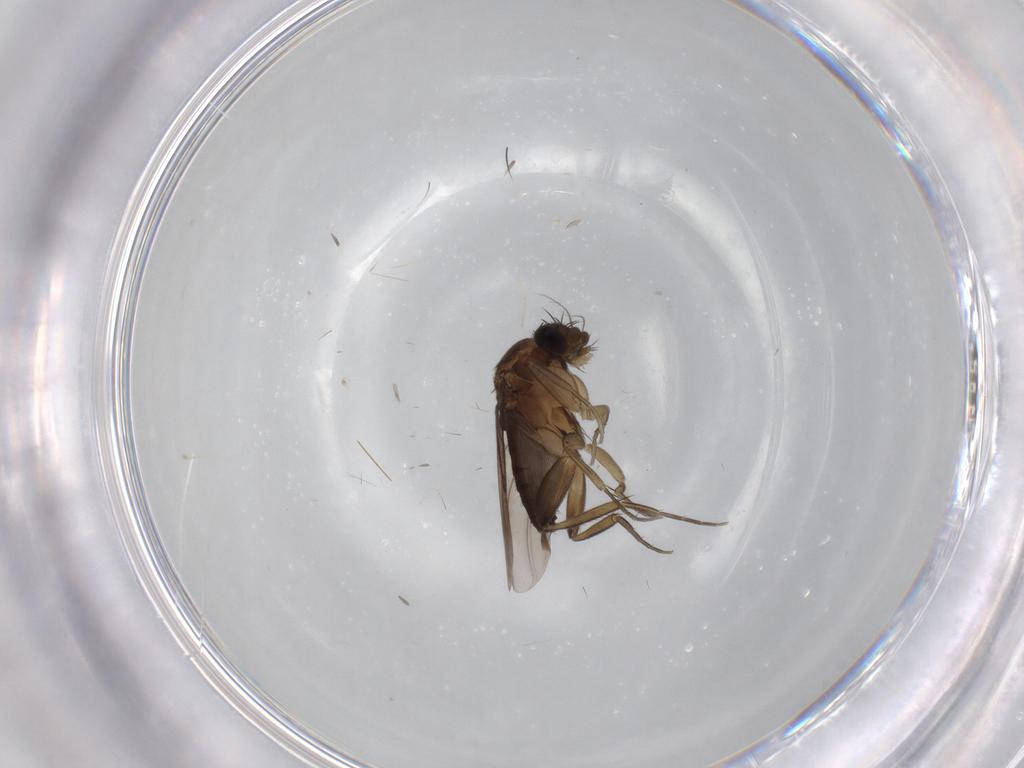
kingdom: Animalia
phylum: Arthropoda
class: Insecta
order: Diptera
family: Phoridae
